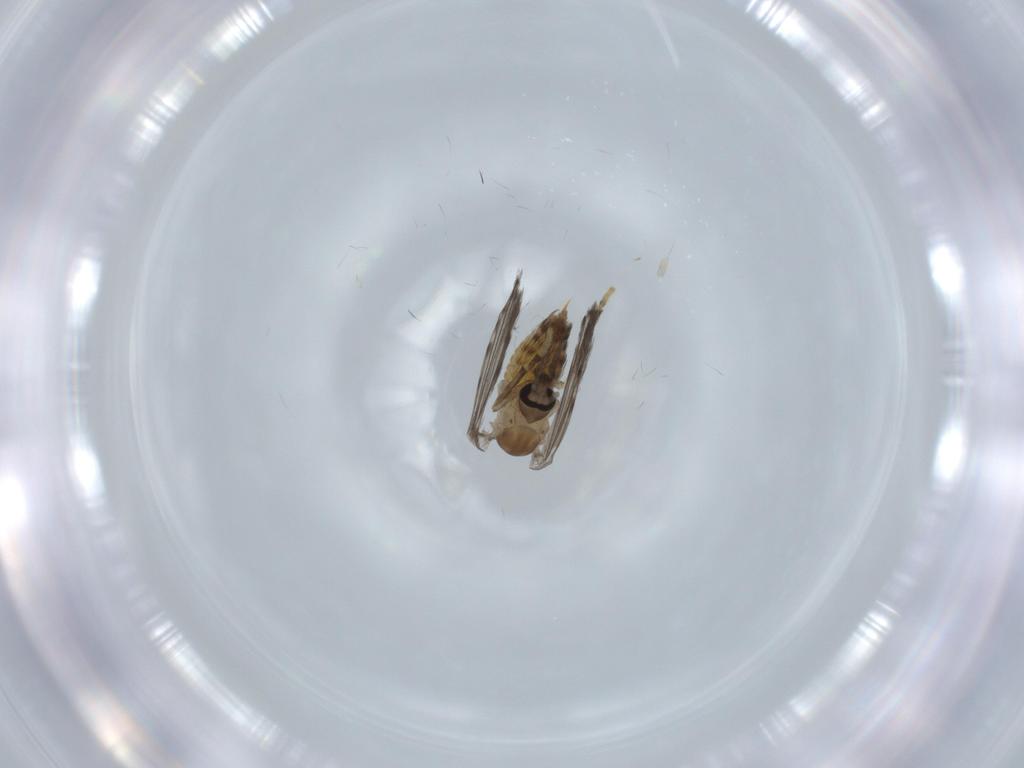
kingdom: Animalia
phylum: Arthropoda
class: Insecta
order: Diptera
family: Psychodidae
